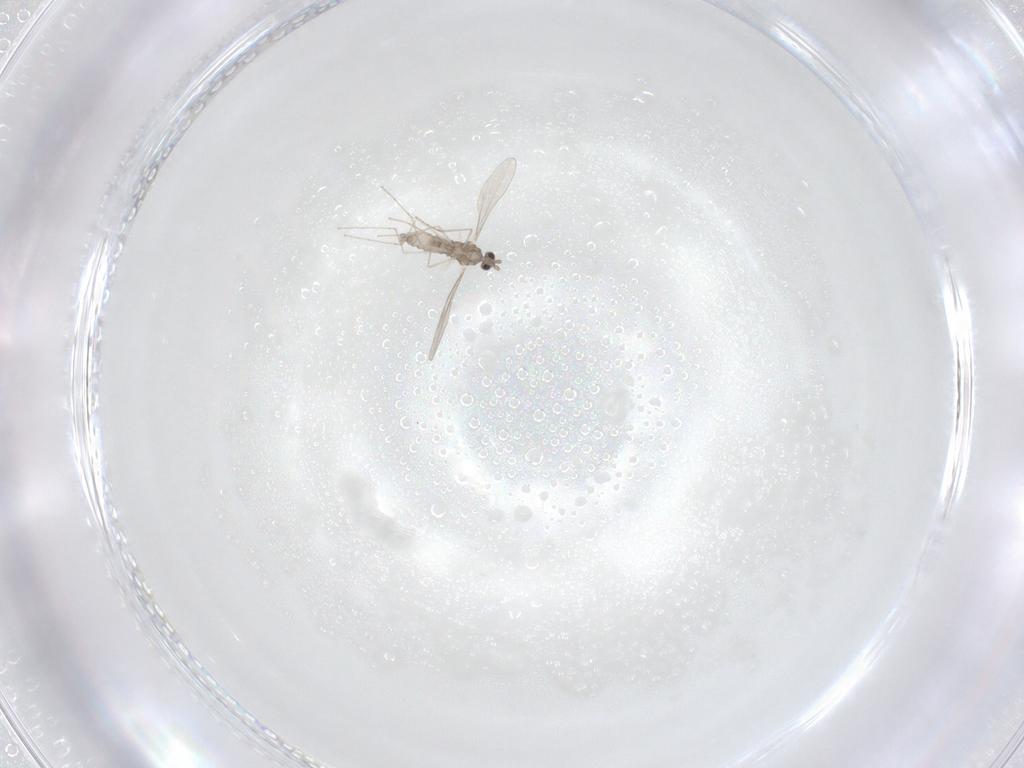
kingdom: Animalia
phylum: Arthropoda
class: Insecta
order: Diptera
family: Cecidomyiidae
